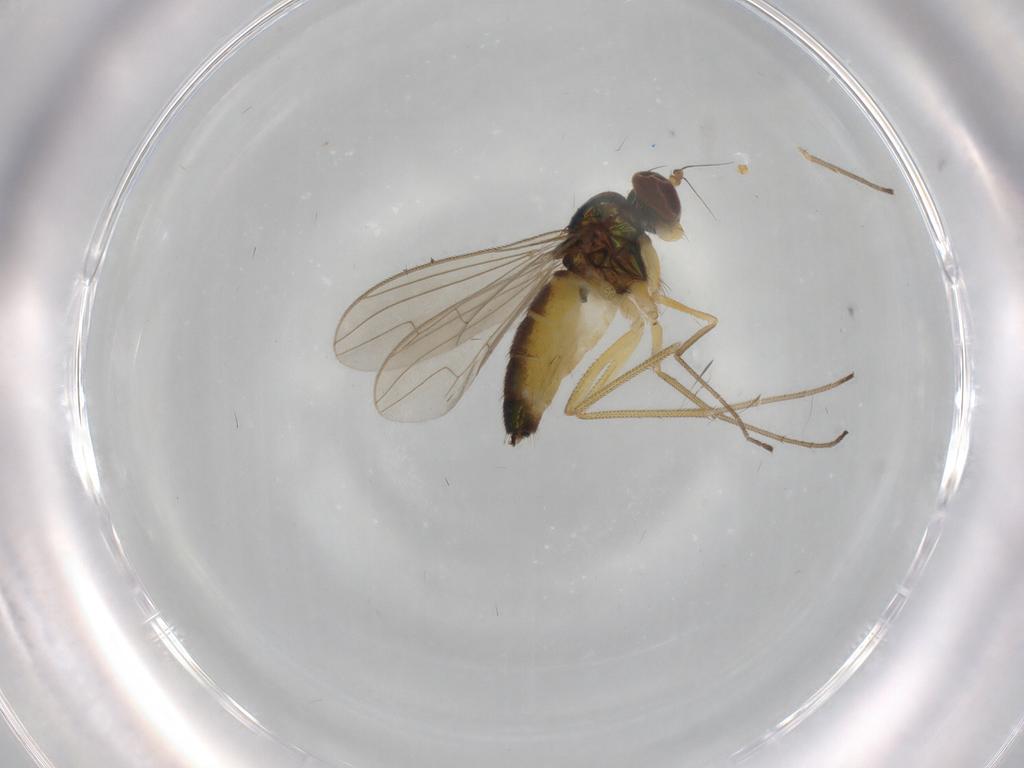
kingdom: Animalia
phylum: Arthropoda
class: Insecta
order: Diptera
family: Dolichopodidae
